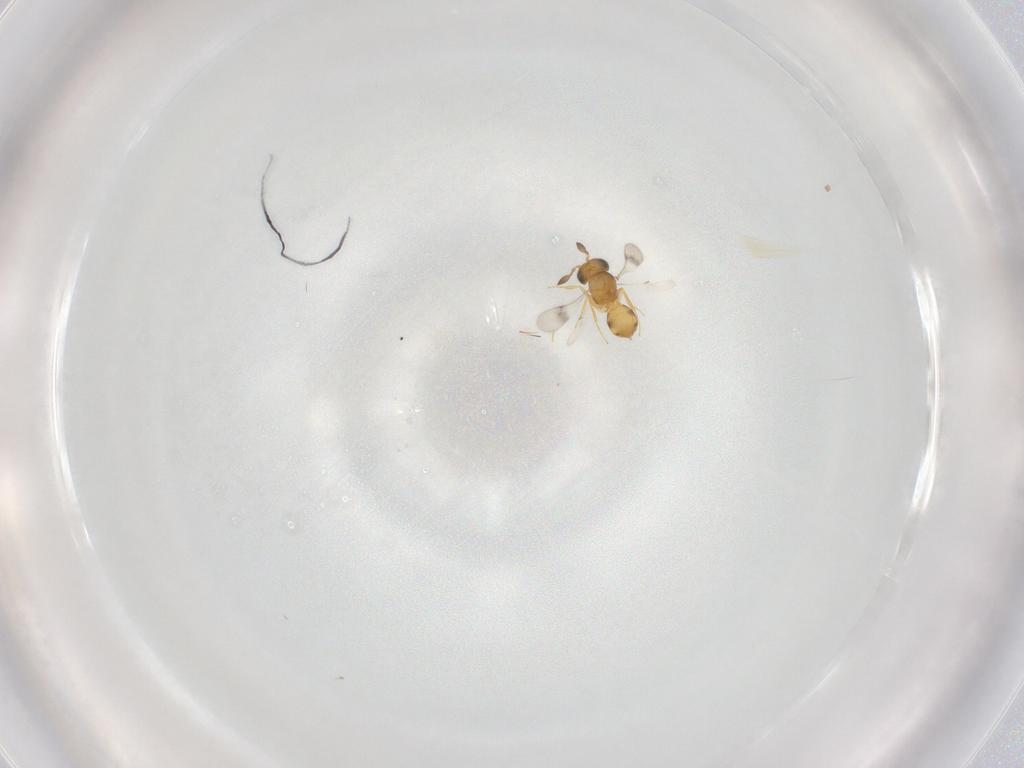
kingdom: Animalia
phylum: Arthropoda
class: Insecta
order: Hymenoptera
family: Scelionidae
